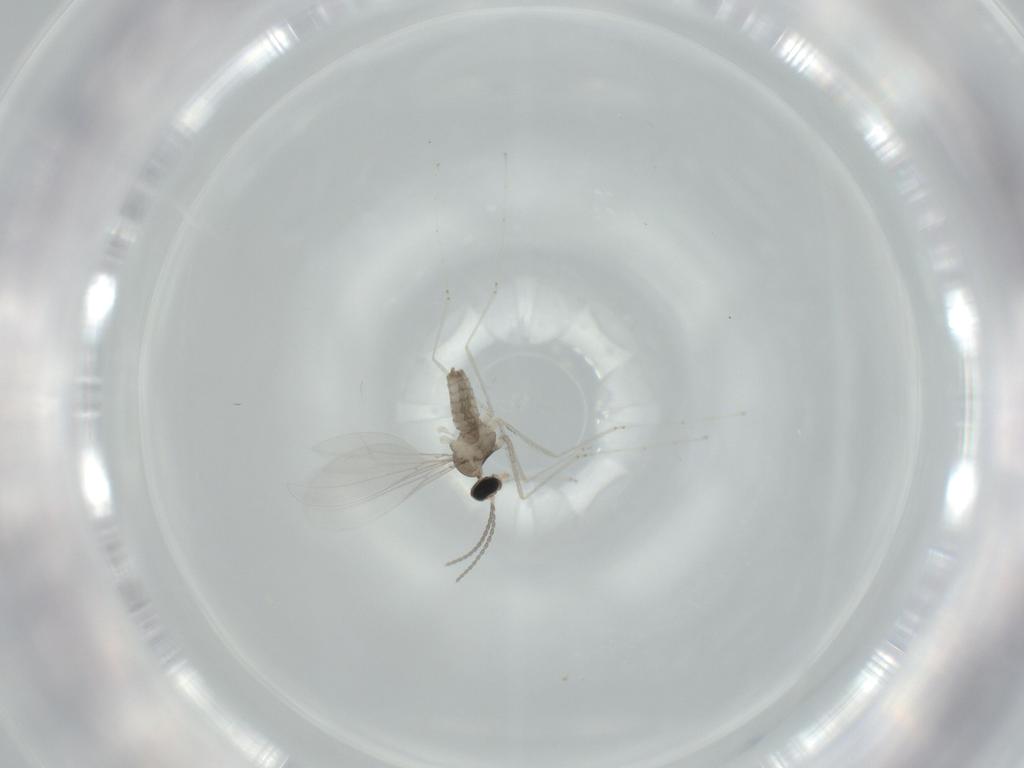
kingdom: Animalia
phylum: Arthropoda
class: Insecta
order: Diptera
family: Cecidomyiidae
